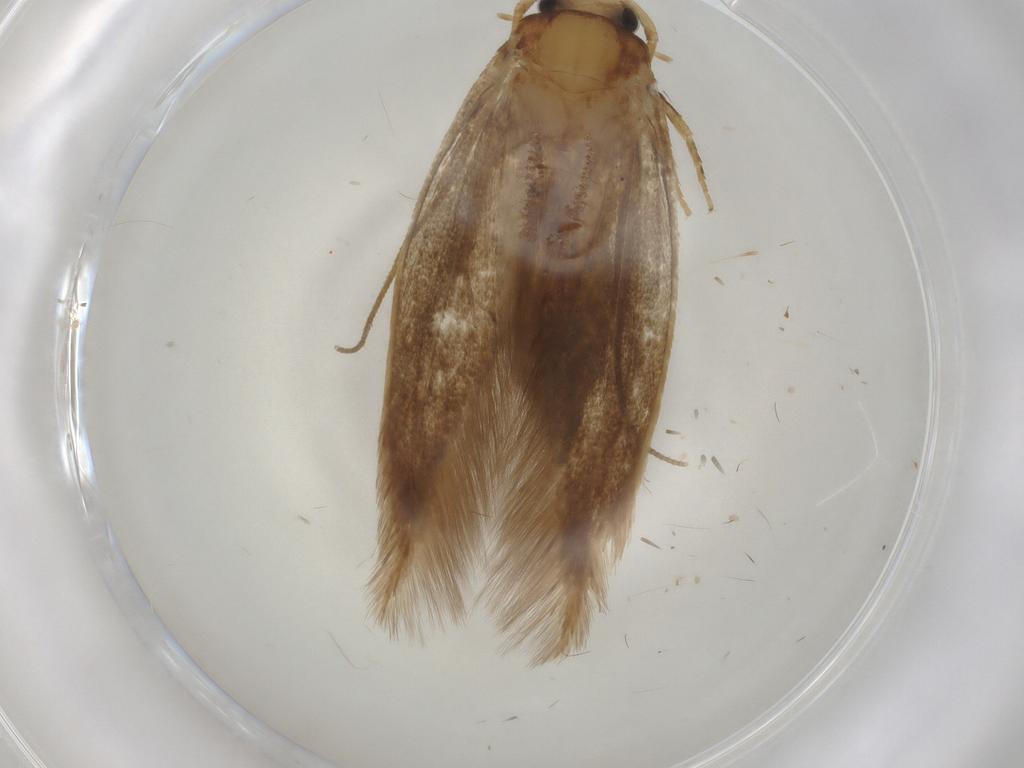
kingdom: Animalia
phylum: Arthropoda
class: Insecta
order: Lepidoptera
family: Tineidae
